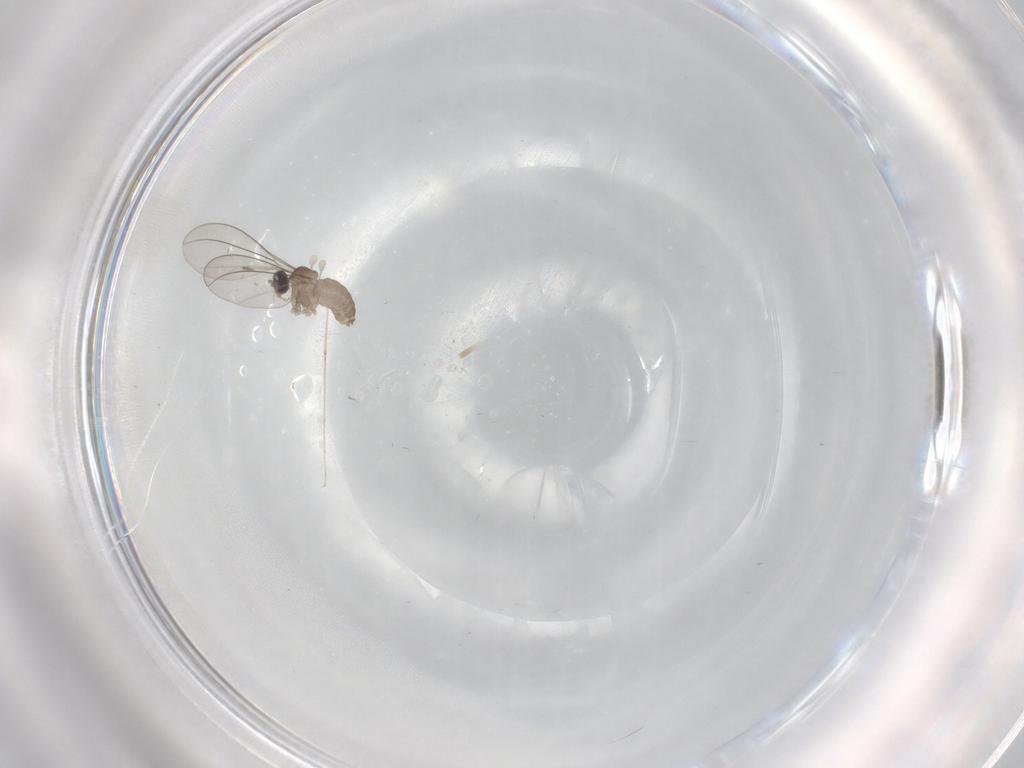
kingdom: Animalia
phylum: Arthropoda
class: Insecta
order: Diptera
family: Cecidomyiidae
